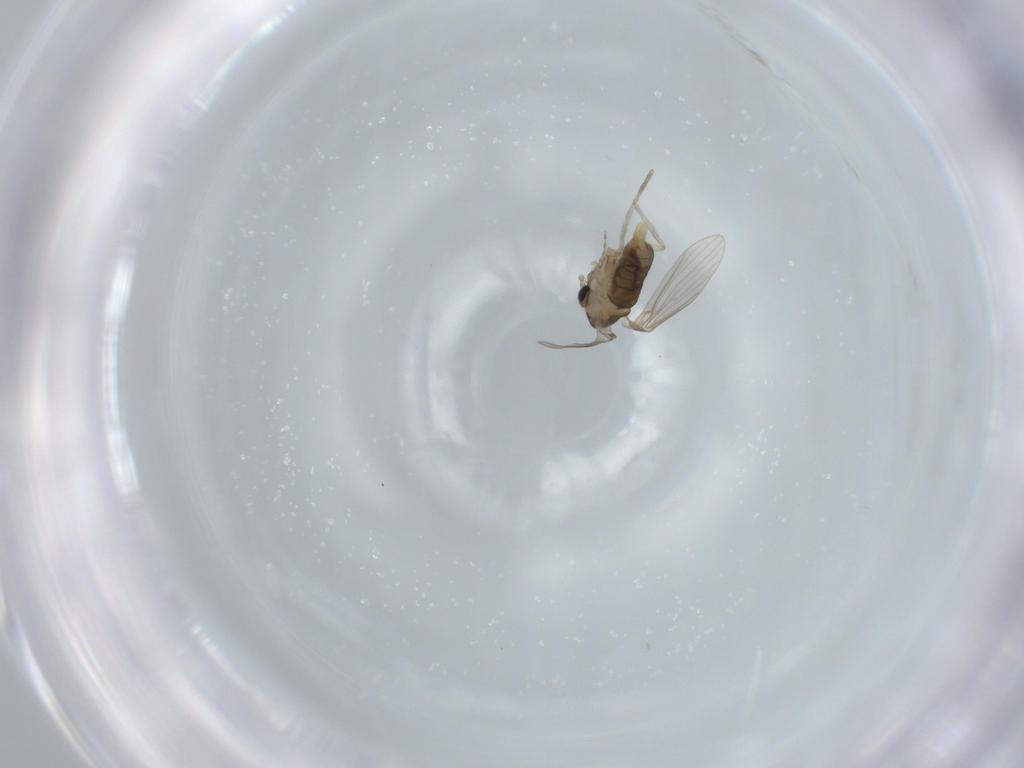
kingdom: Animalia
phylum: Arthropoda
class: Insecta
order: Diptera
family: Psychodidae
